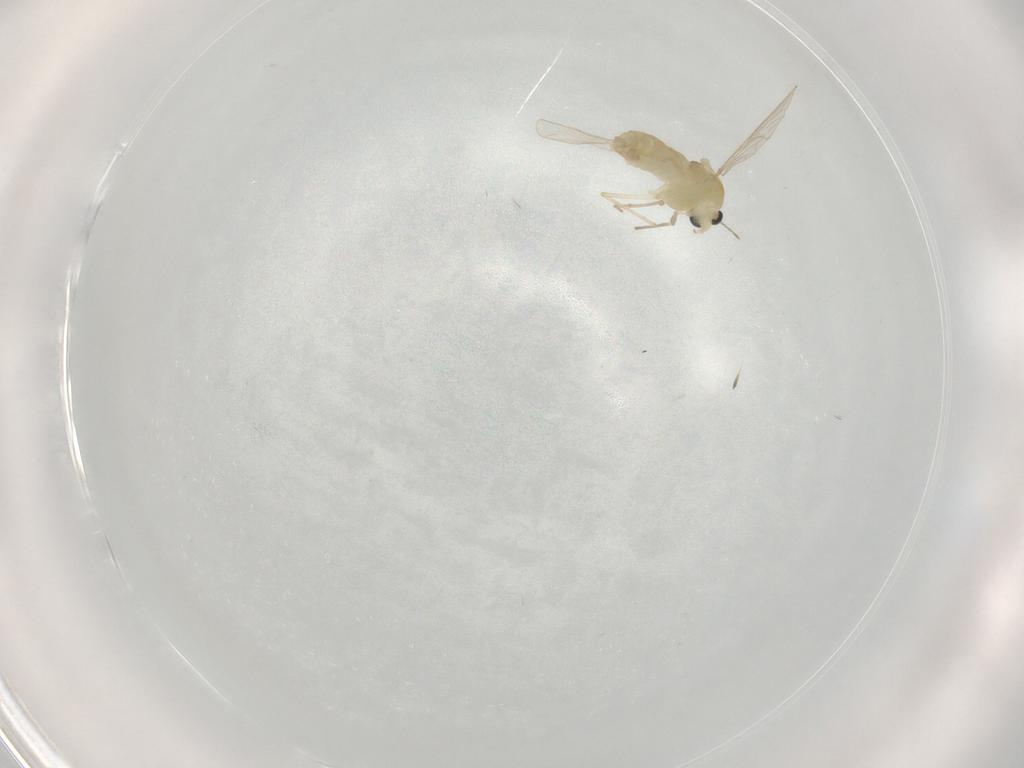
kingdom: Animalia
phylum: Arthropoda
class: Insecta
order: Diptera
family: Chironomidae
